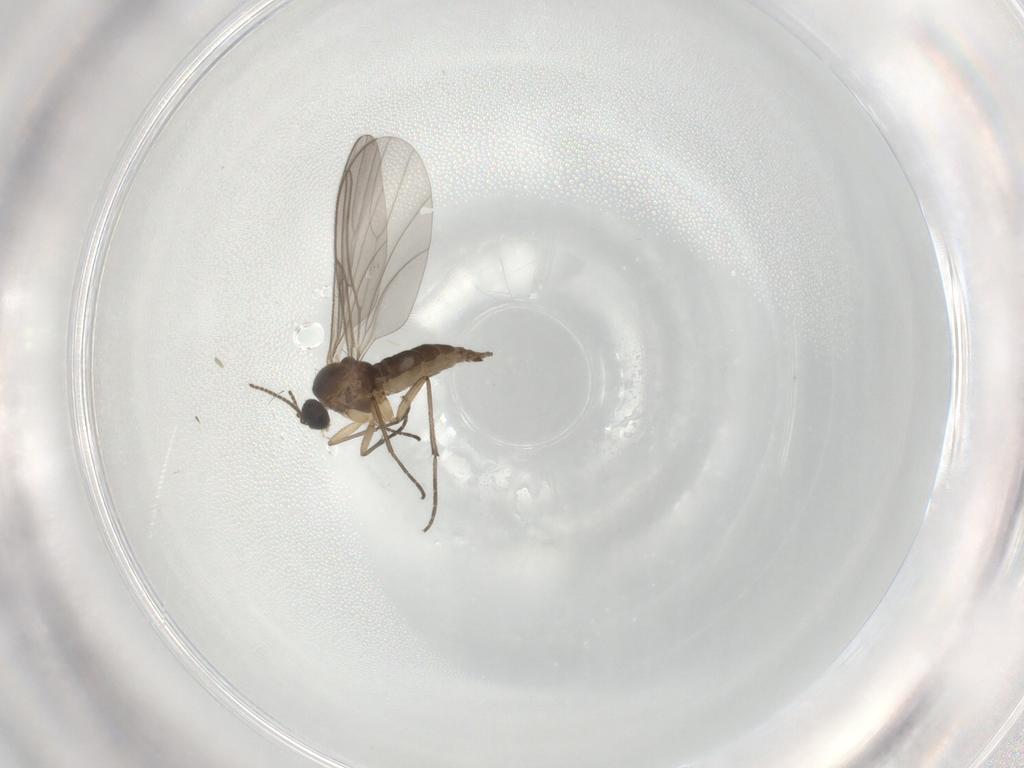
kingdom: Animalia
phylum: Arthropoda
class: Insecta
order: Diptera
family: Sciaridae
